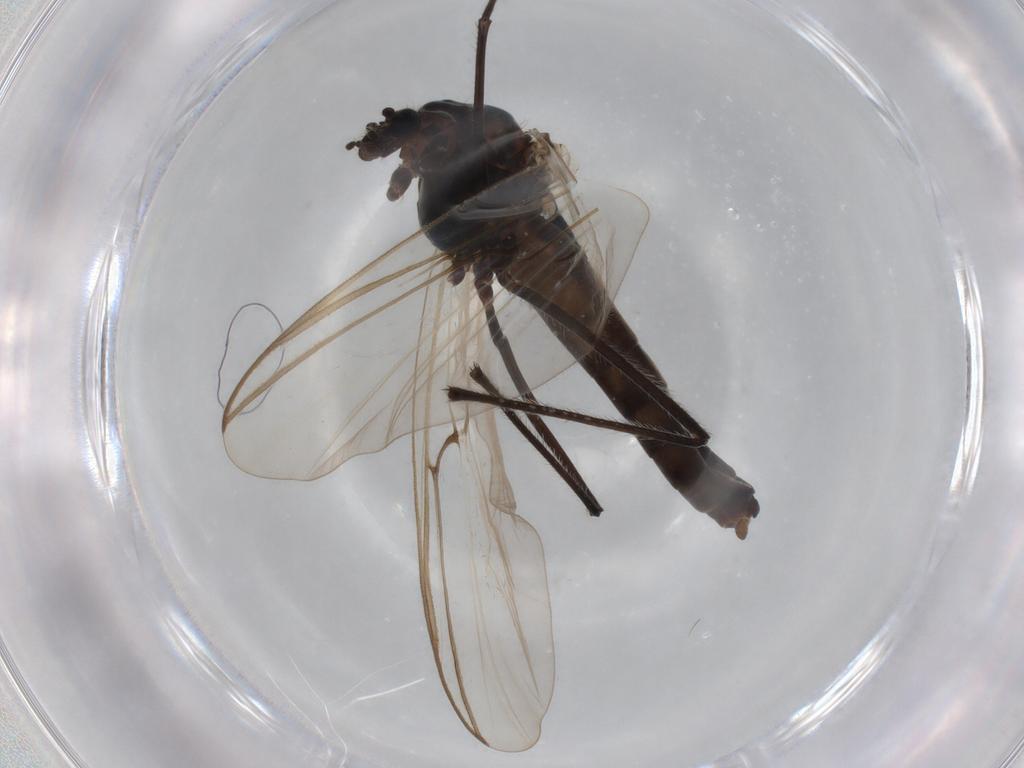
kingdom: Animalia
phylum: Arthropoda
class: Insecta
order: Diptera
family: Chironomidae
